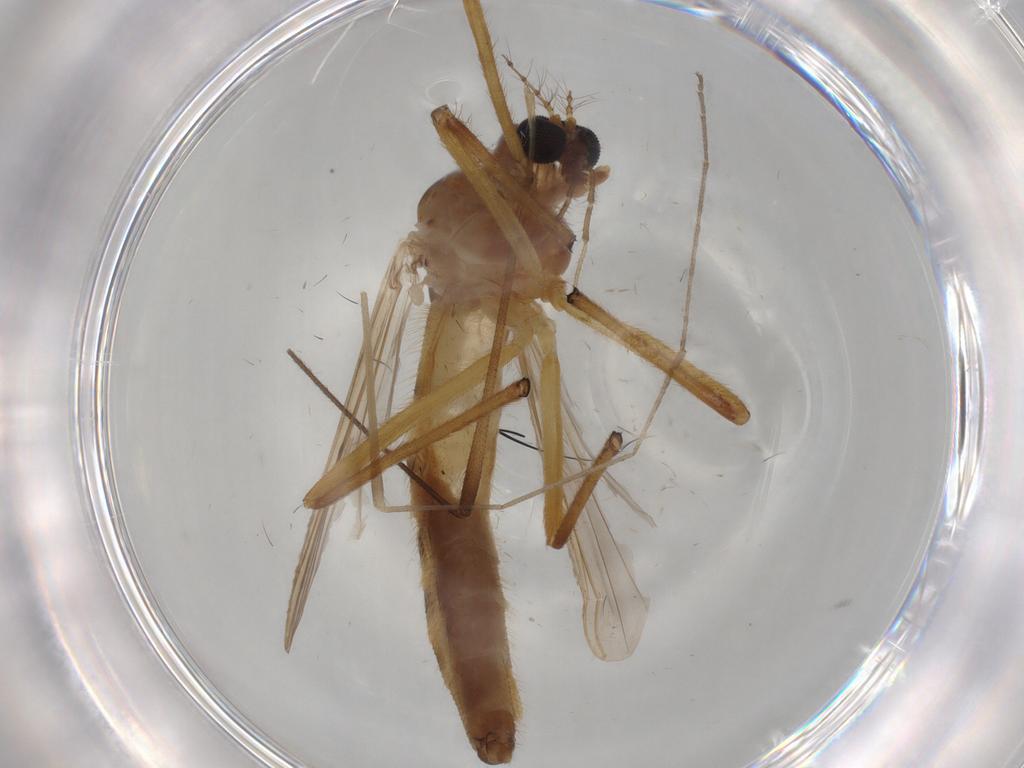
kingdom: Animalia
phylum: Arthropoda
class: Insecta
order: Diptera
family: Limoniidae
